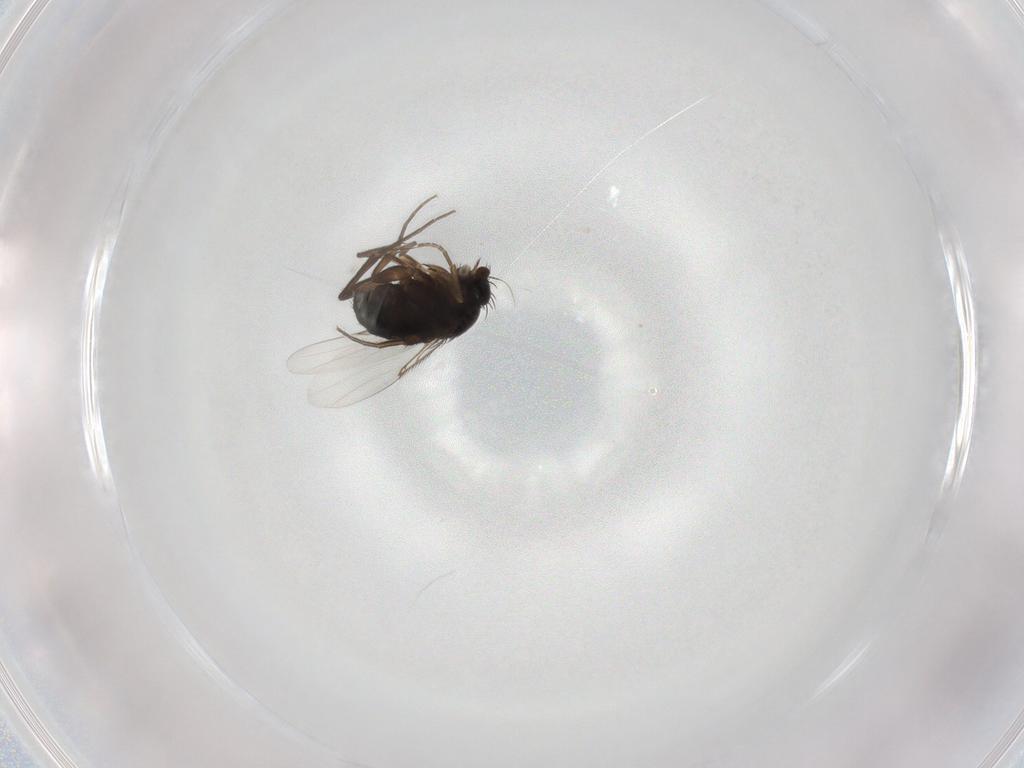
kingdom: Animalia
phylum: Arthropoda
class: Insecta
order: Diptera
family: Phoridae
